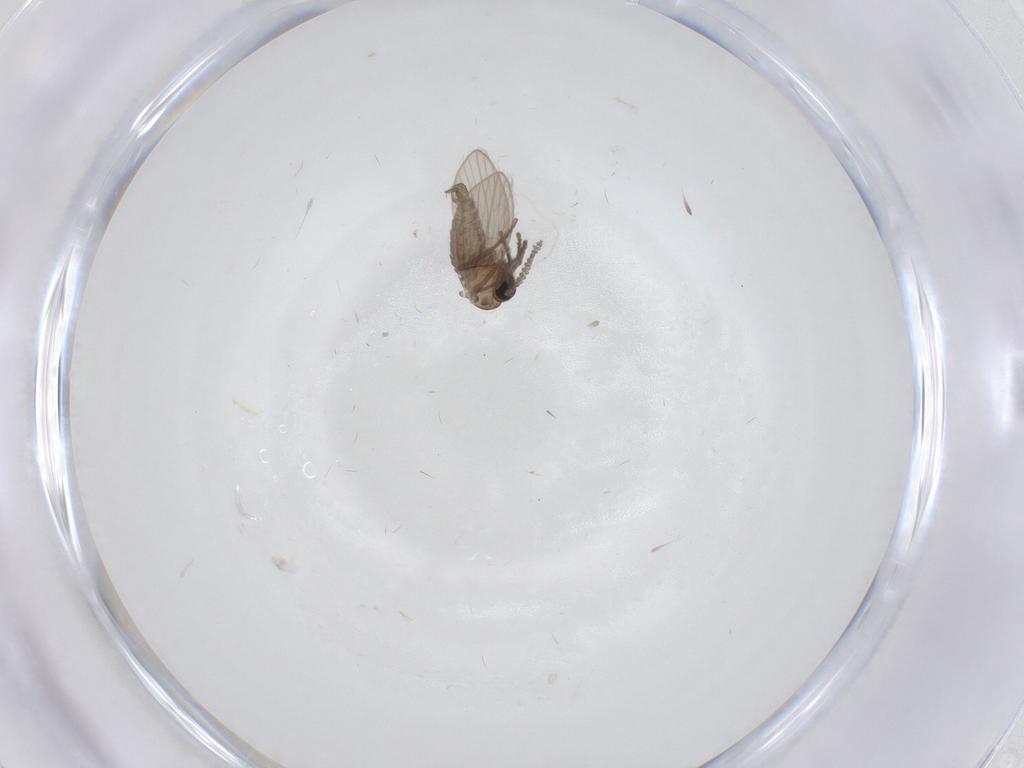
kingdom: Animalia
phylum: Arthropoda
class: Insecta
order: Diptera
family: Psychodidae
